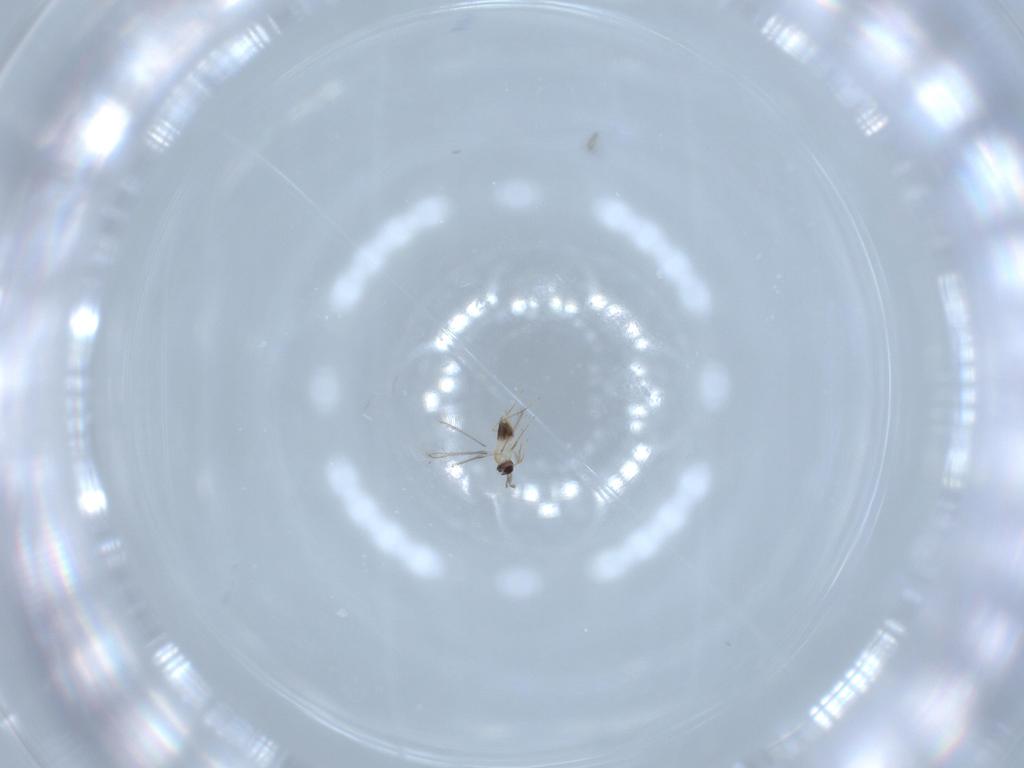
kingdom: Animalia
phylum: Arthropoda
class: Insecta
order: Hymenoptera
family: Mymaridae
